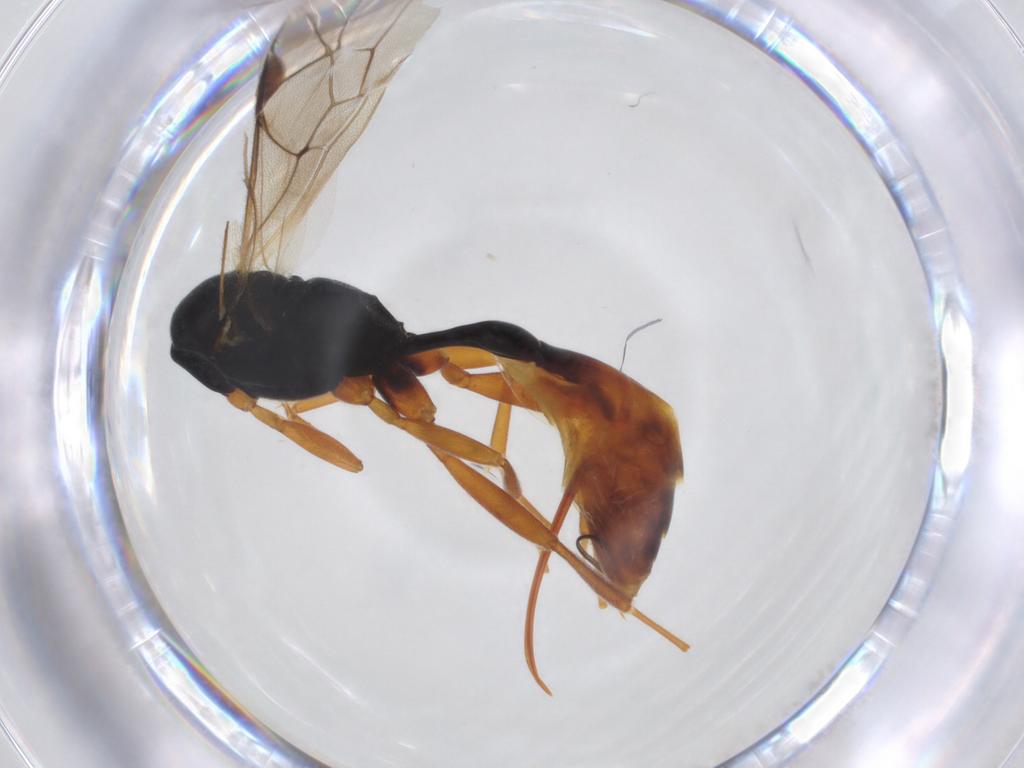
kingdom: Animalia
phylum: Arthropoda
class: Insecta
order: Hymenoptera
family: Ichneumonidae
